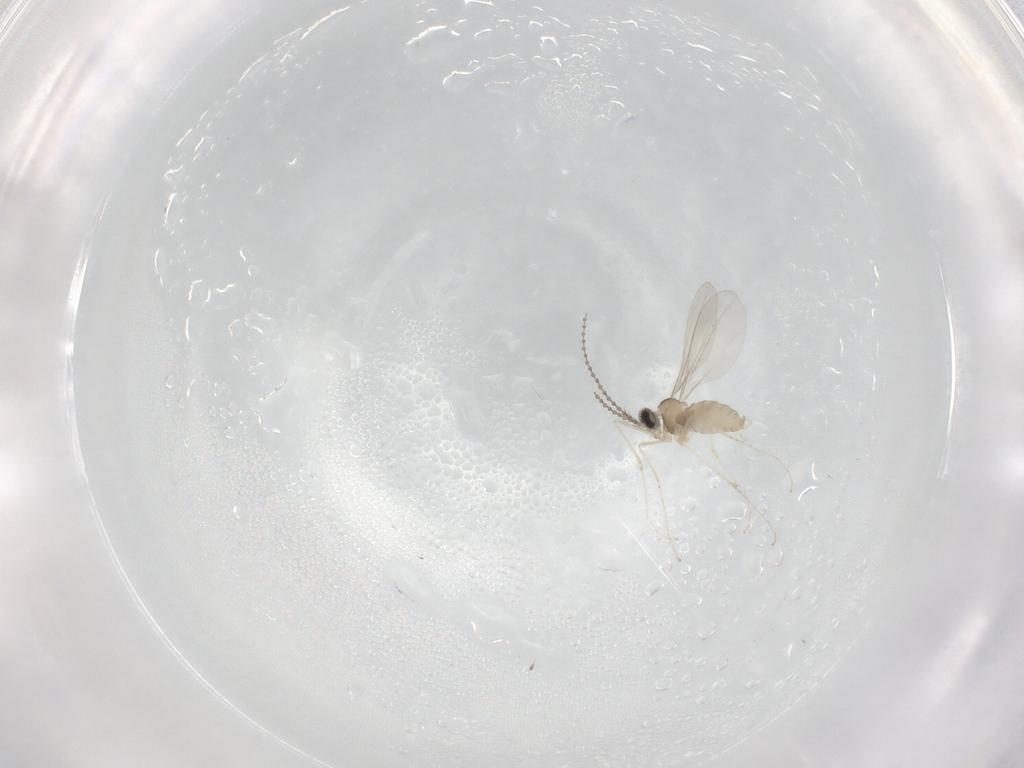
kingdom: Animalia
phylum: Arthropoda
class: Insecta
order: Diptera
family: Cecidomyiidae
